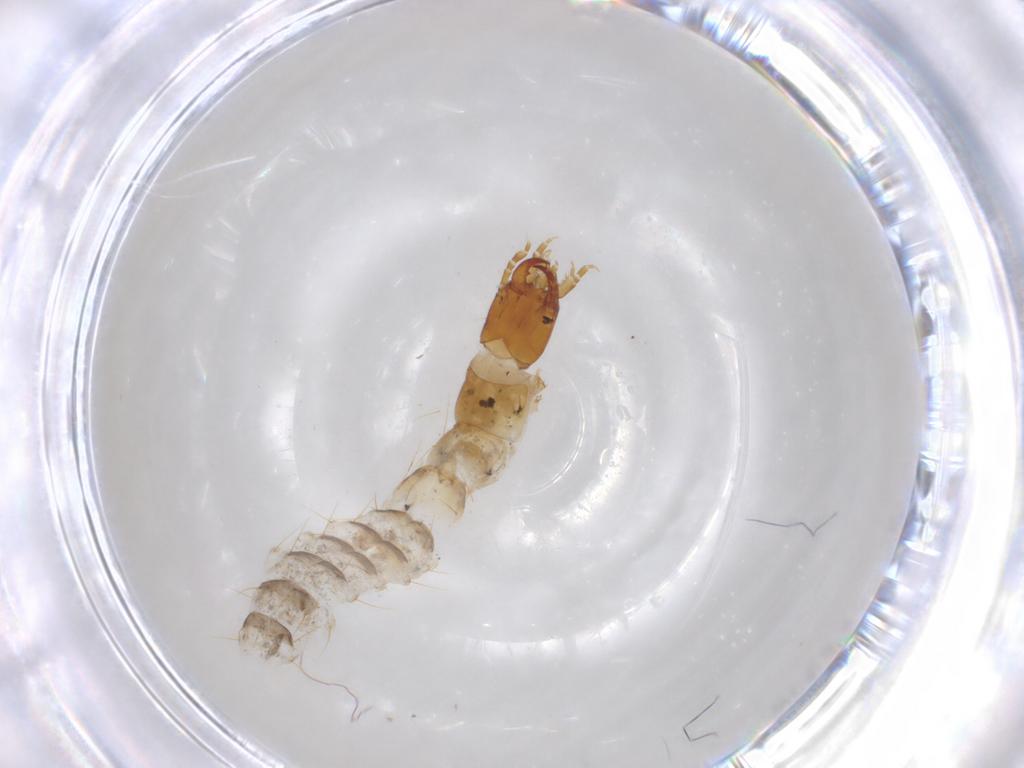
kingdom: Animalia
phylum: Arthropoda
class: Insecta
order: Coleoptera
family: Carabidae
